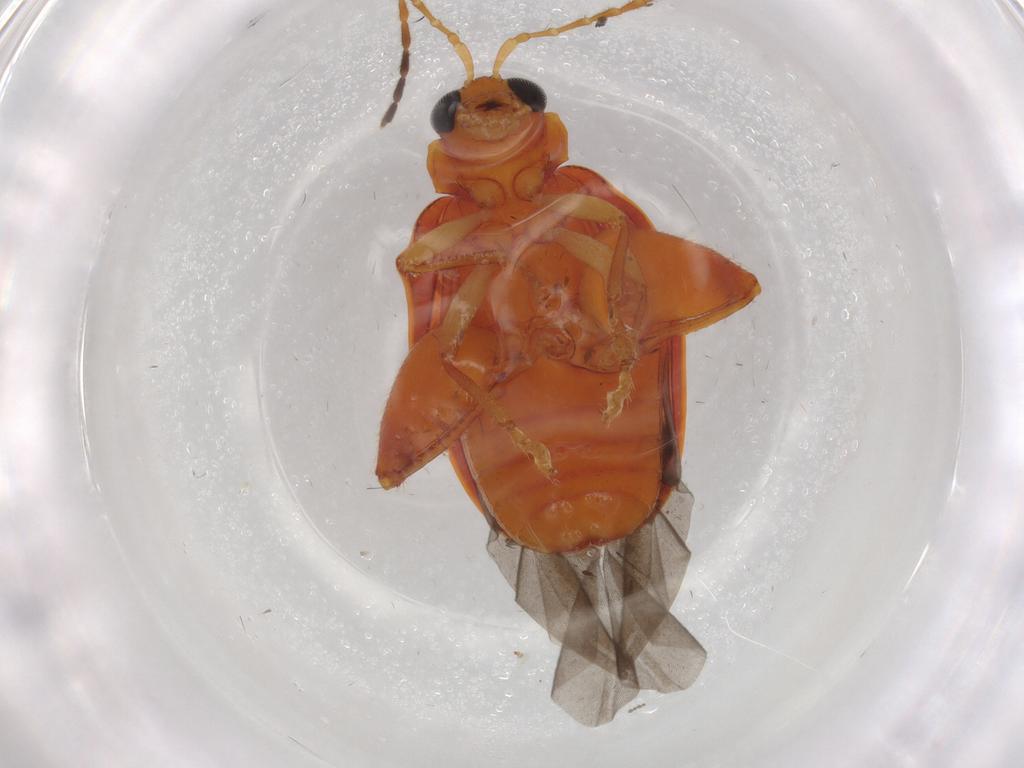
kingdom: Animalia
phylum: Arthropoda
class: Insecta
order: Coleoptera
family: Chrysomelidae
